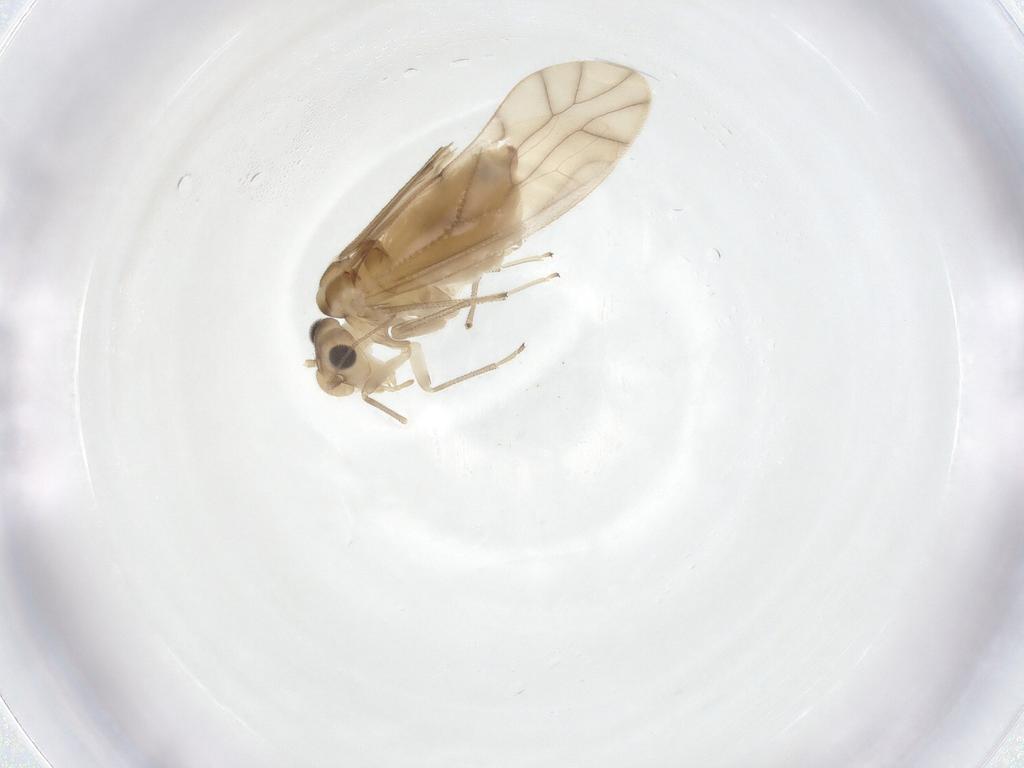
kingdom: Animalia
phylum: Arthropoda
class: Insecta
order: Psocodea
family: Caeciliusidae
